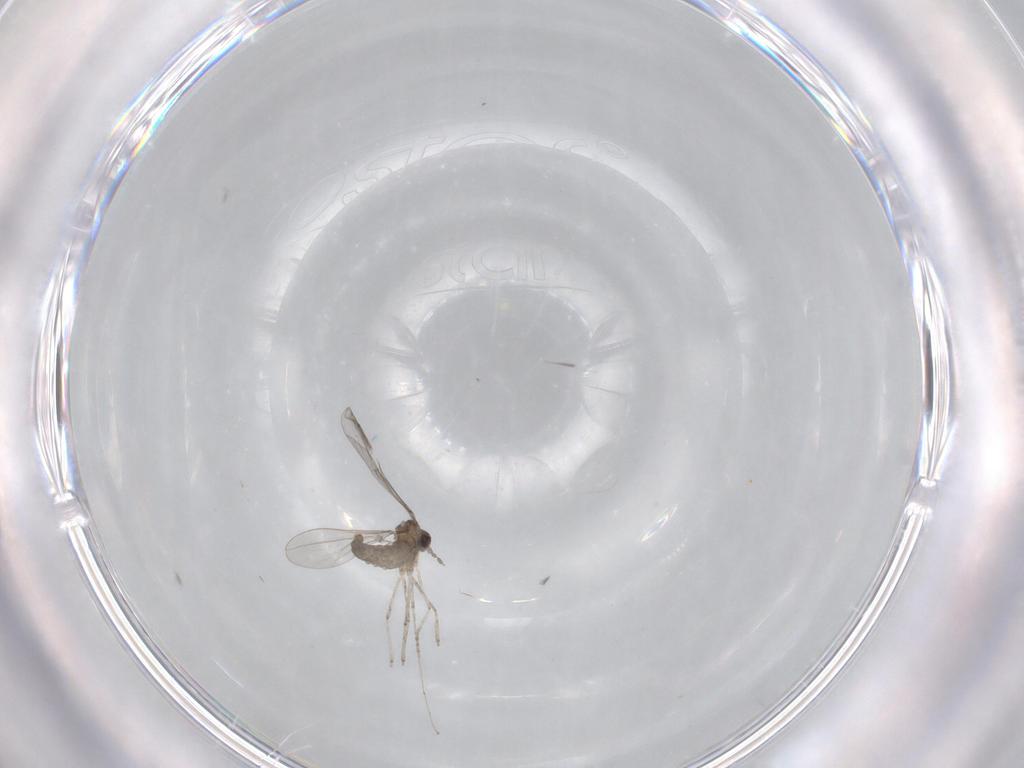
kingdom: Animalia
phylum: Arthropoda
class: Insecta
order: Diptera
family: Cecidomyiidae
